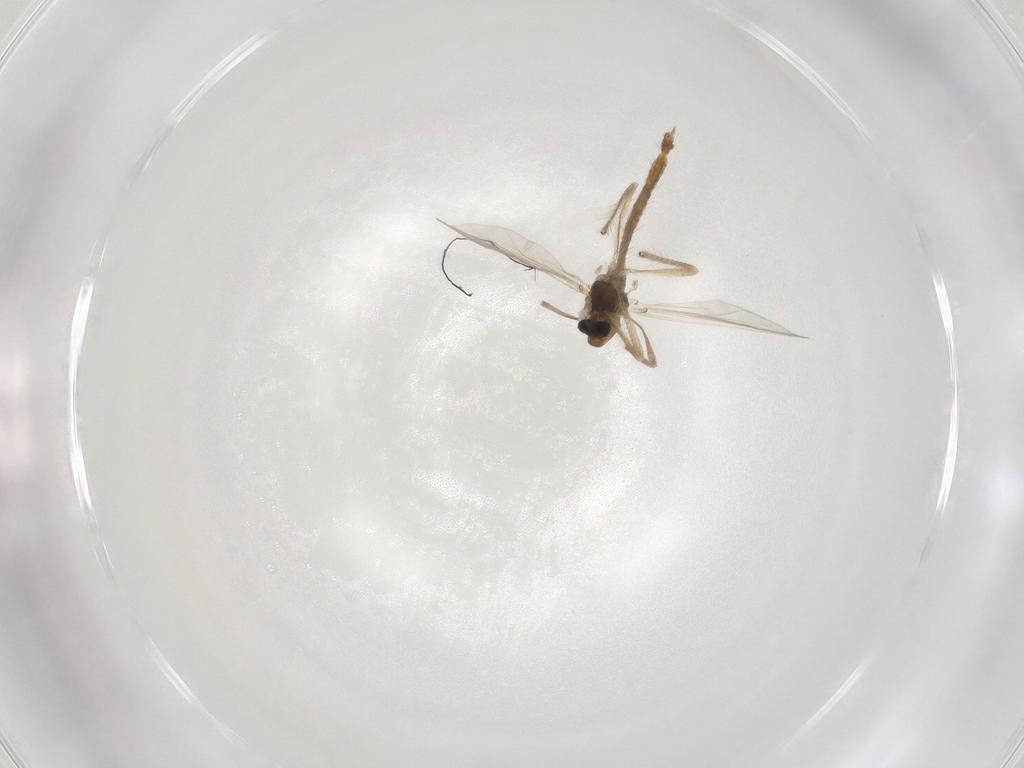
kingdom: Animalia
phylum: Arthropoda
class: Insecta
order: Diptera
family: Chironomidae
